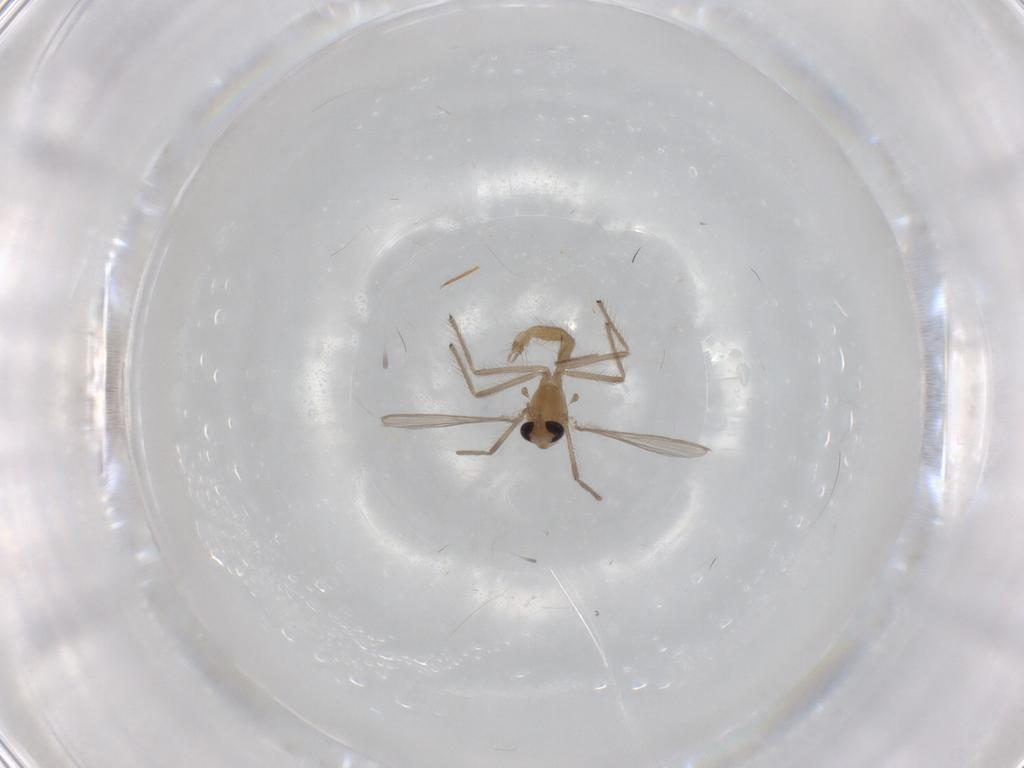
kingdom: Animalia
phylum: Arthropoda
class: Insecta
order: Diptera
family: Chironomidae
